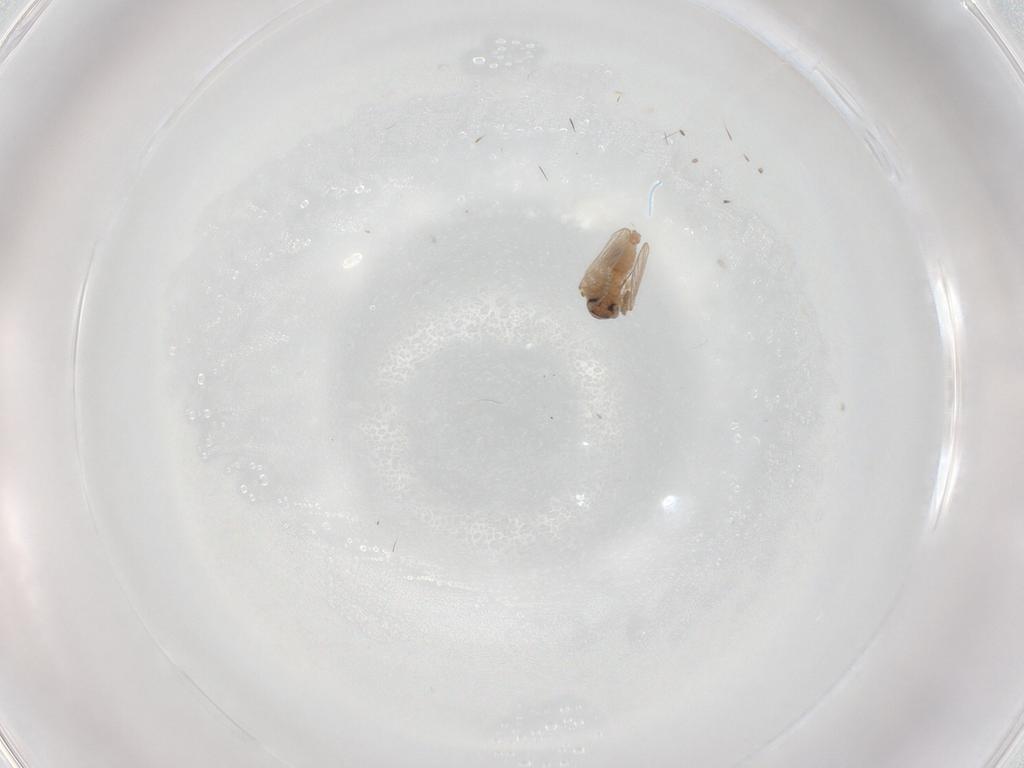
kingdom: Animalia
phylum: Arthropoda
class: Insecta
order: Diptera
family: Psychodidae
